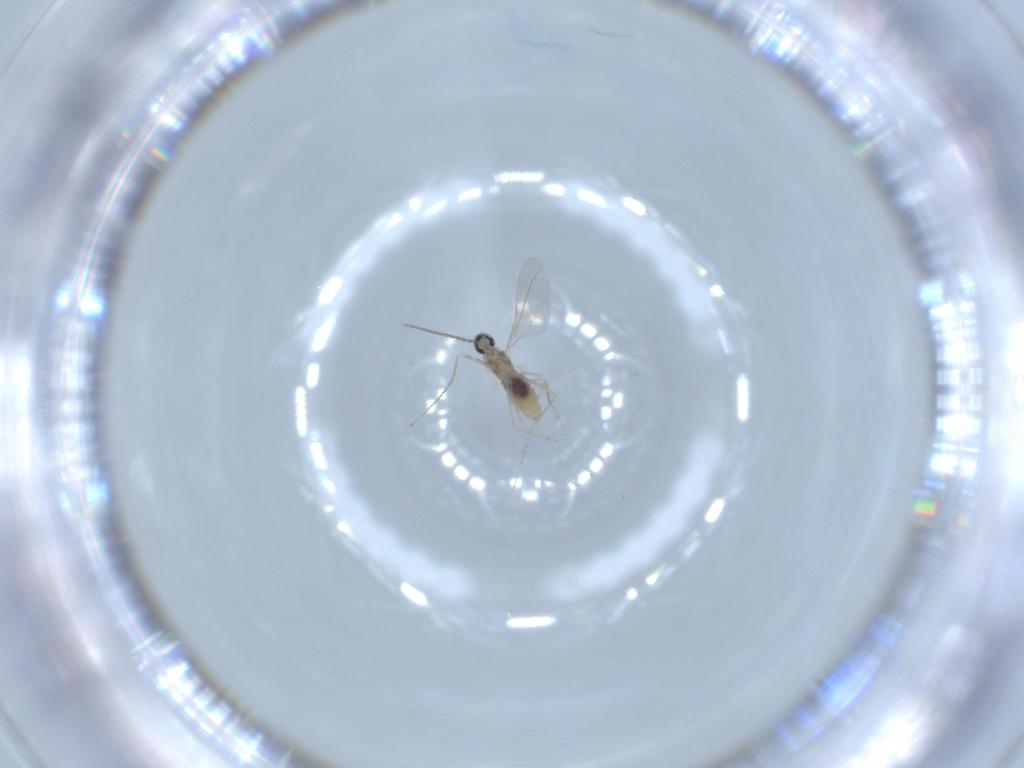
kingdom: Animalia
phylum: Arthropoda
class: Insecta
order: Diptera
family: Cecidomyiidae
